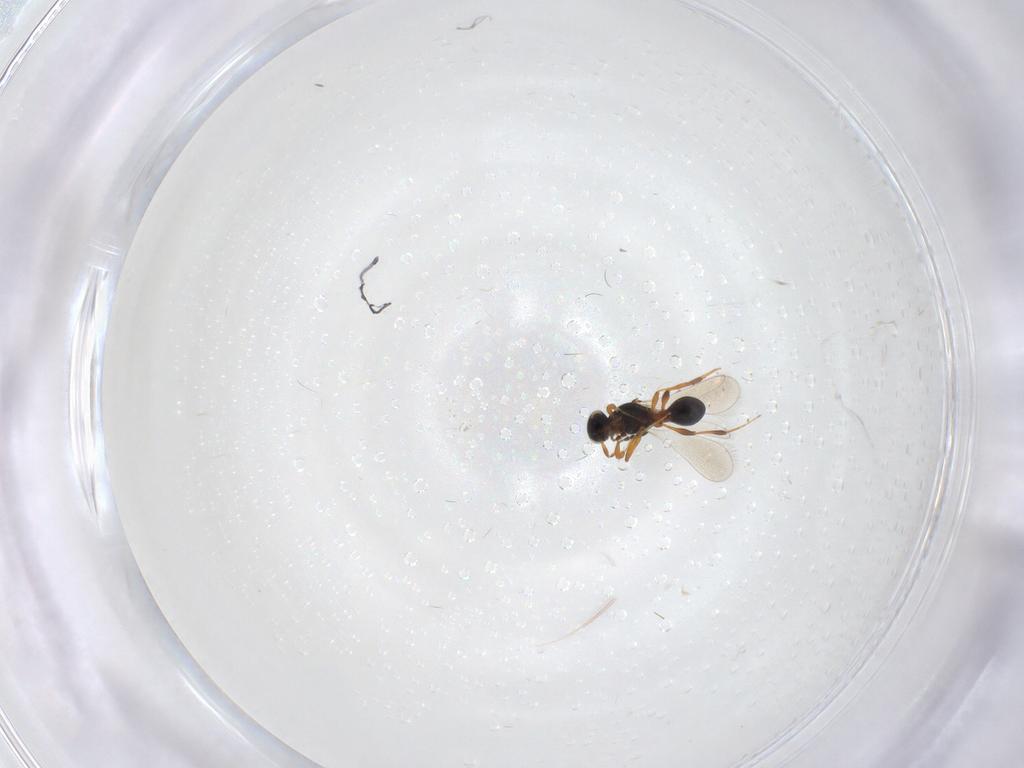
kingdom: Animalia
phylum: Arthropoda
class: Insecta
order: Hymenoptera
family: Platygastridae
